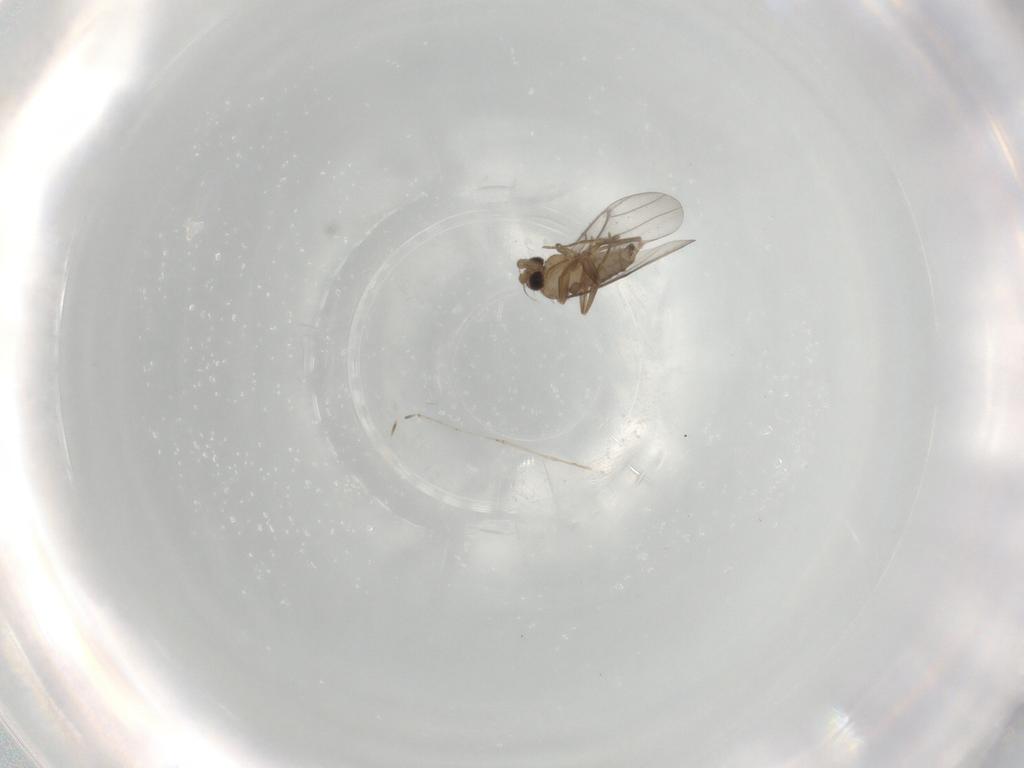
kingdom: Animalia
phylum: Arthropoda
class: Insecta
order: Diptera
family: Cecidomyiidae
